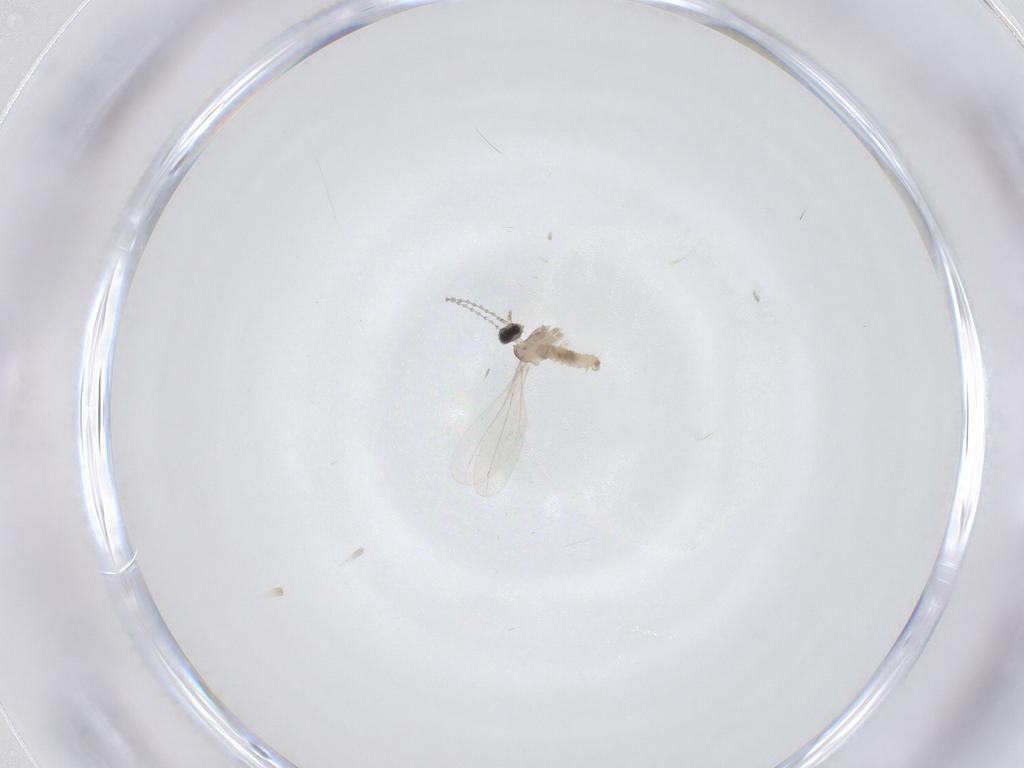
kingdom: Animalia
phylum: Arthropoda
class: Insecta
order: Diptera
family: Cecidomyiidae
